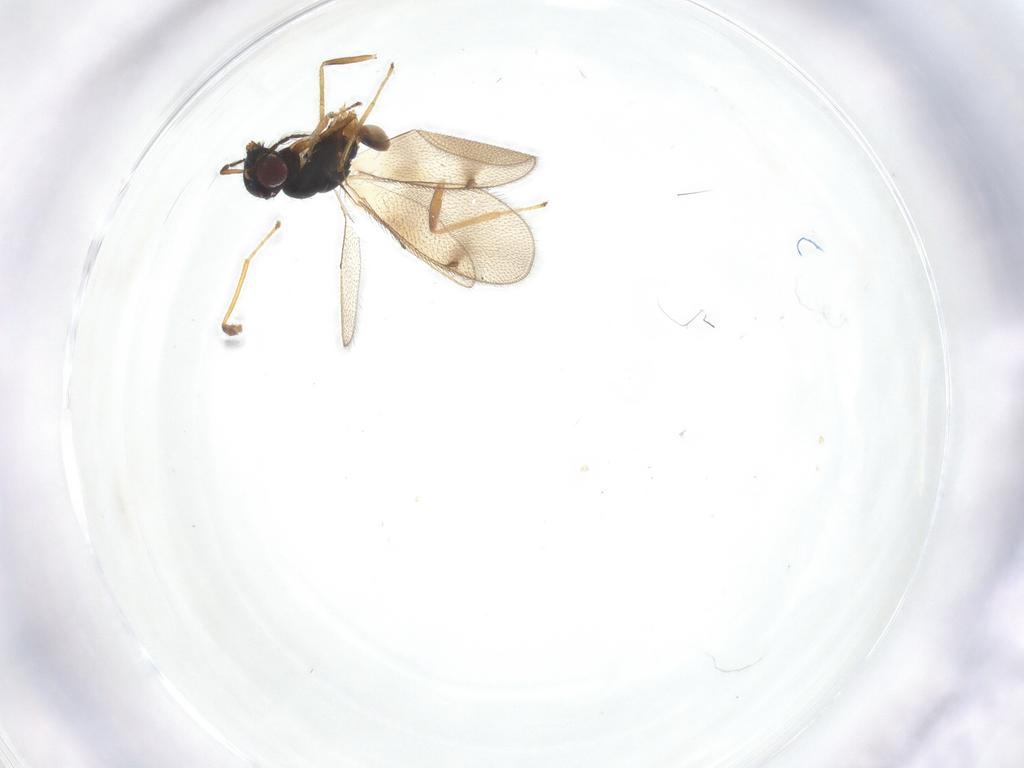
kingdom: Animalia
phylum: Arthropoda
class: Insecta
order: Hymenoptera
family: Eulophidae
